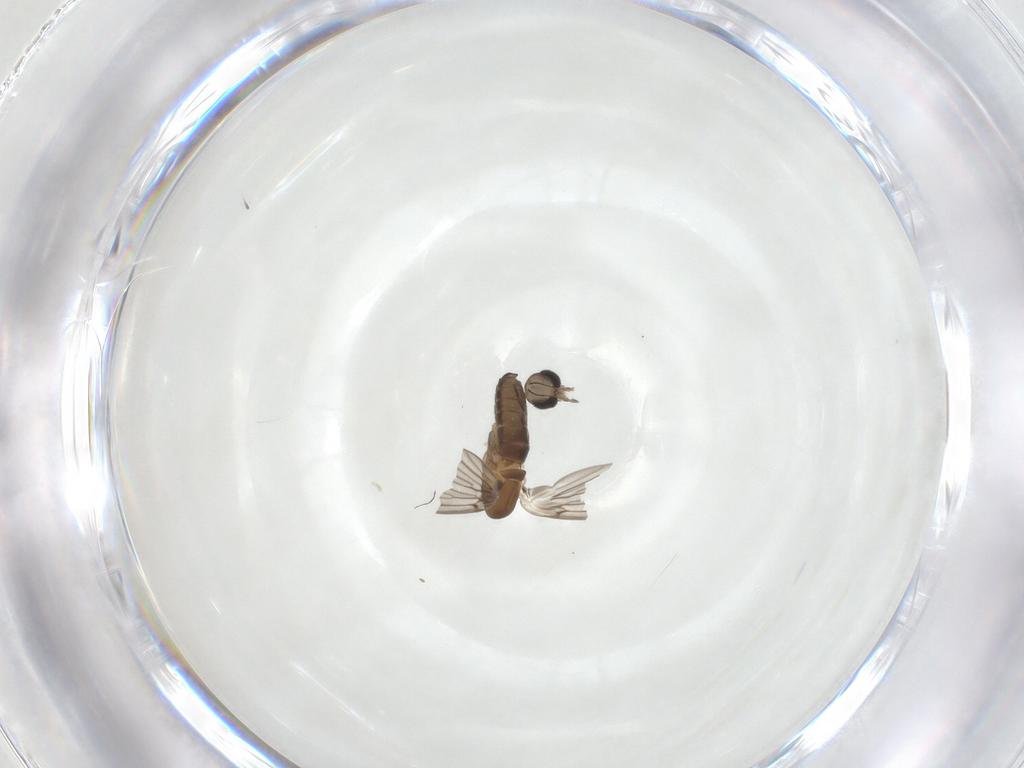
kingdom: Animalia
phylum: Arthropoda
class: Insecta
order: Diptera
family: Psychodidae
